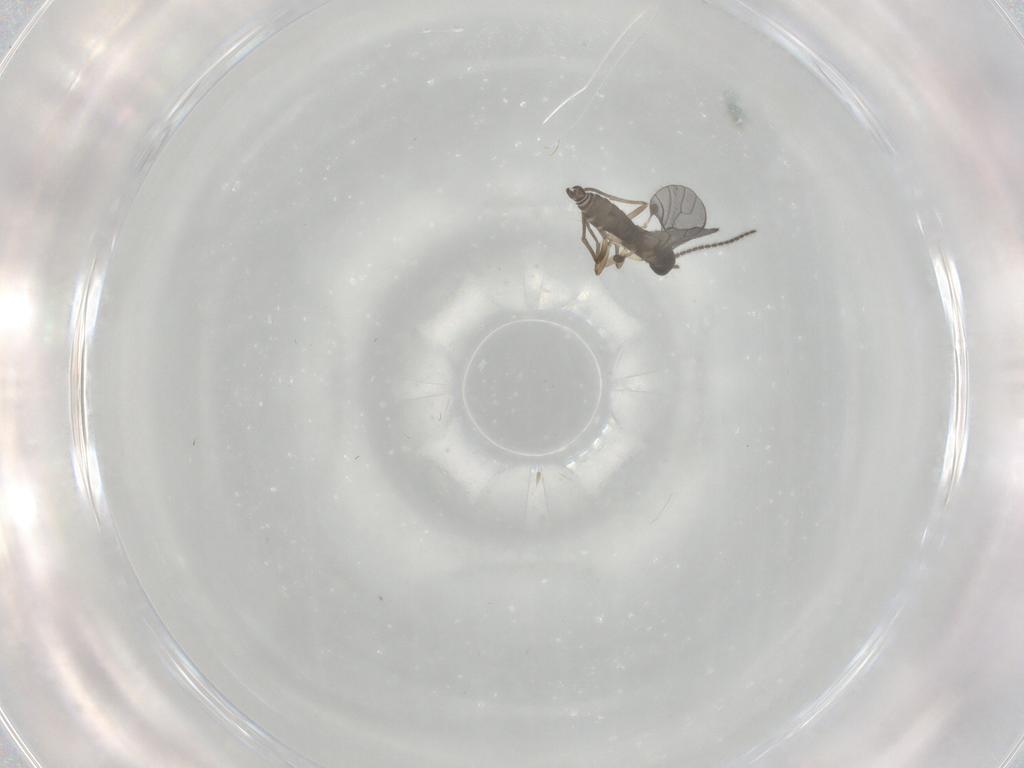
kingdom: Animalia
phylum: Arthropoda
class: Insecta
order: Diptera
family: Sciaridae
